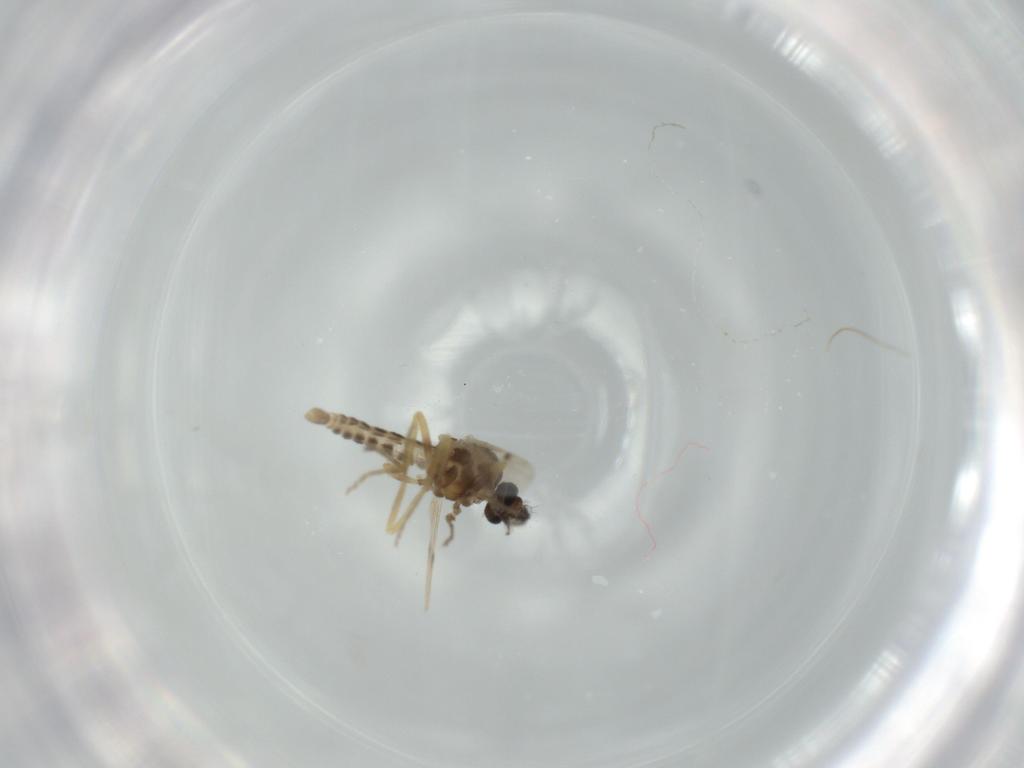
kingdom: Animalia
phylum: Arthropoda
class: Insecta
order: Diptera
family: Ceratopogonidae
